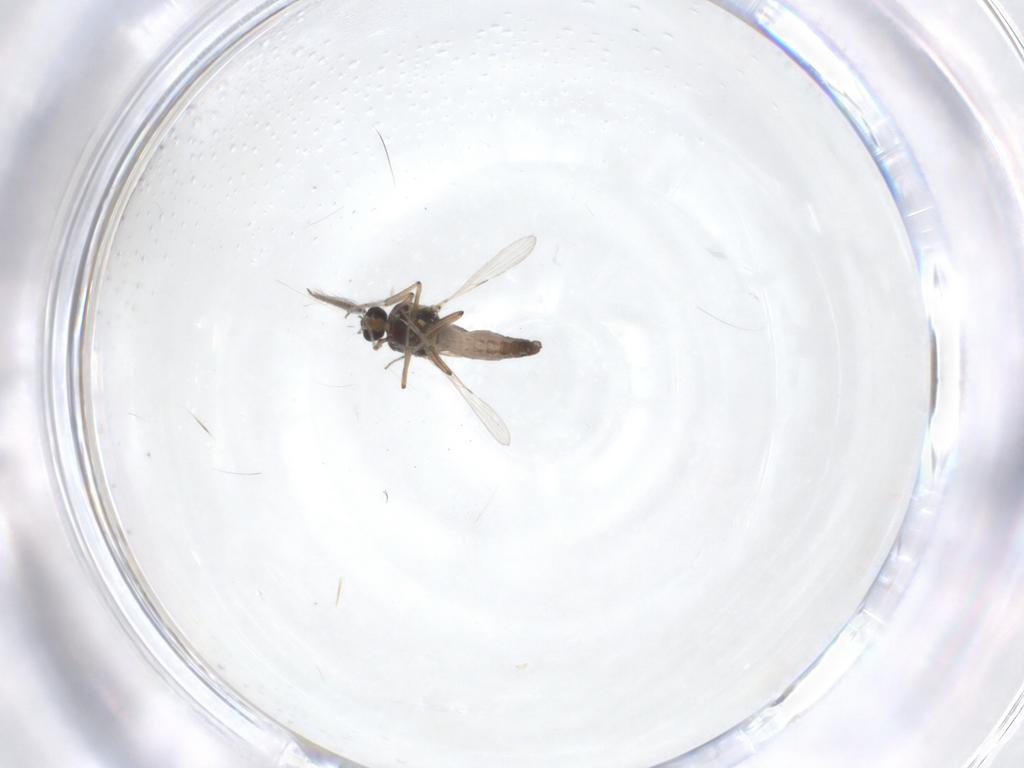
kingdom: Animalia
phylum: Arthropoda
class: Insecta
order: Diptera
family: Ceratopogonidae
